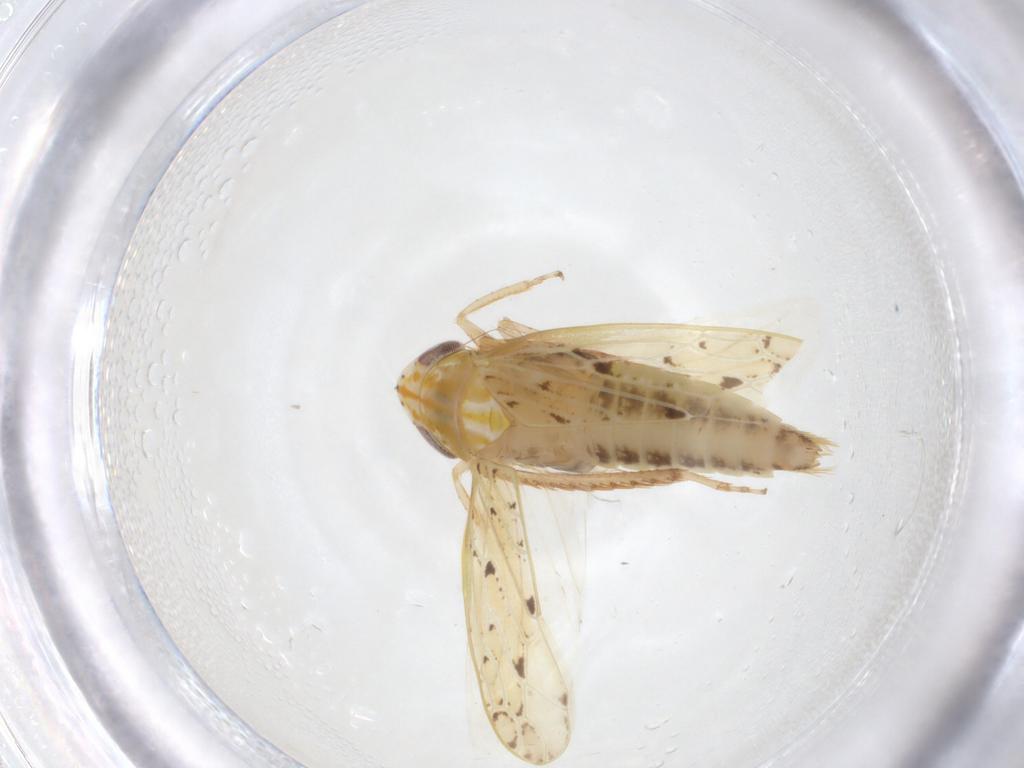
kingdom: Animalia
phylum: Arthropoda
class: Insecta
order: Hemiptera
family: Cicadellidae
